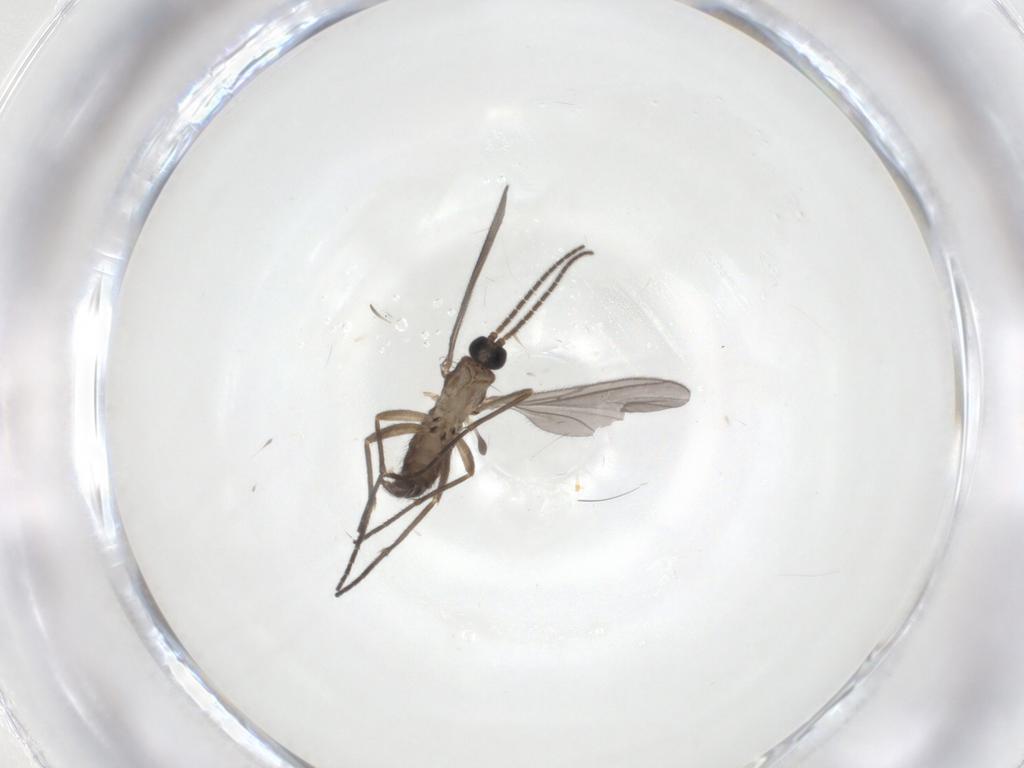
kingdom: Animalia
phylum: Arthropoda
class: Insecta
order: Diptera
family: Sciaridae
